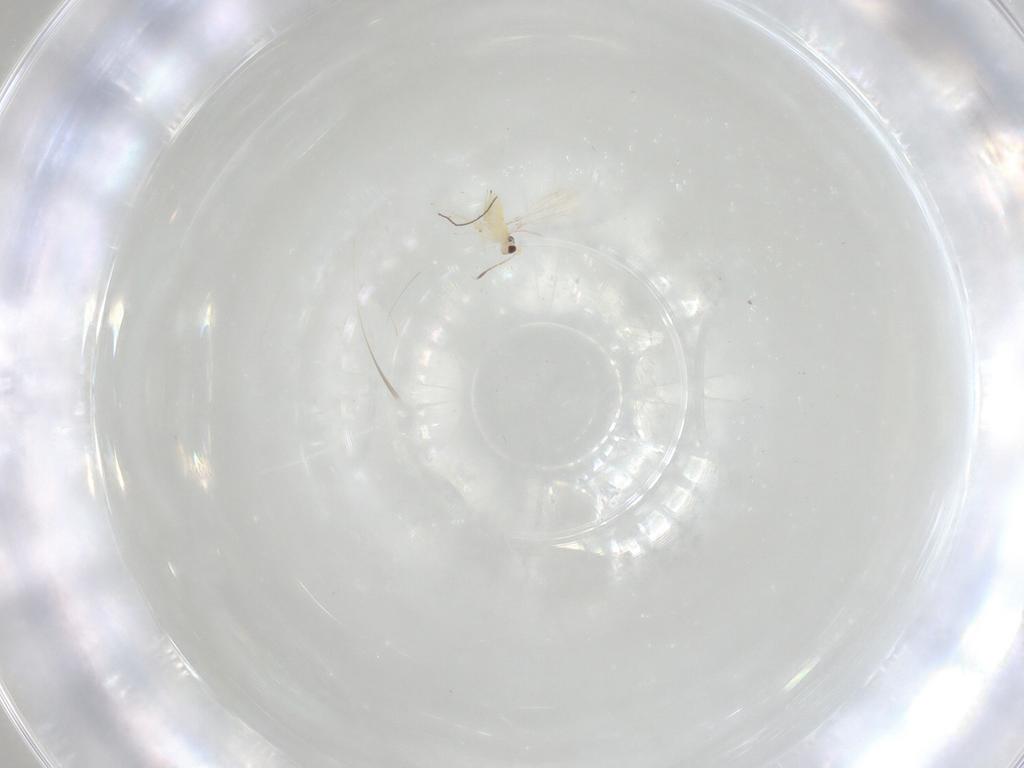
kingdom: Animalia
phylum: Arthropoda
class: Insecta
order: Hymenoptera
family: Mymaridae
